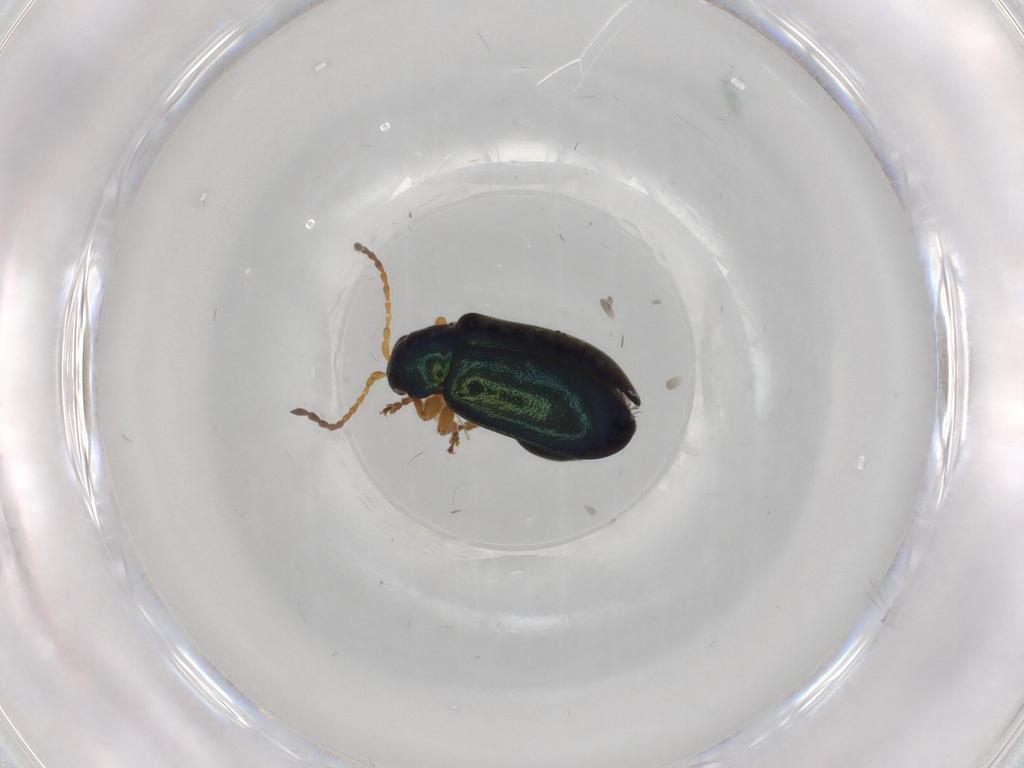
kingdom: Animalia
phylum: Arthropoda
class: Insecta
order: Coleoptera
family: Chrysomelidae
